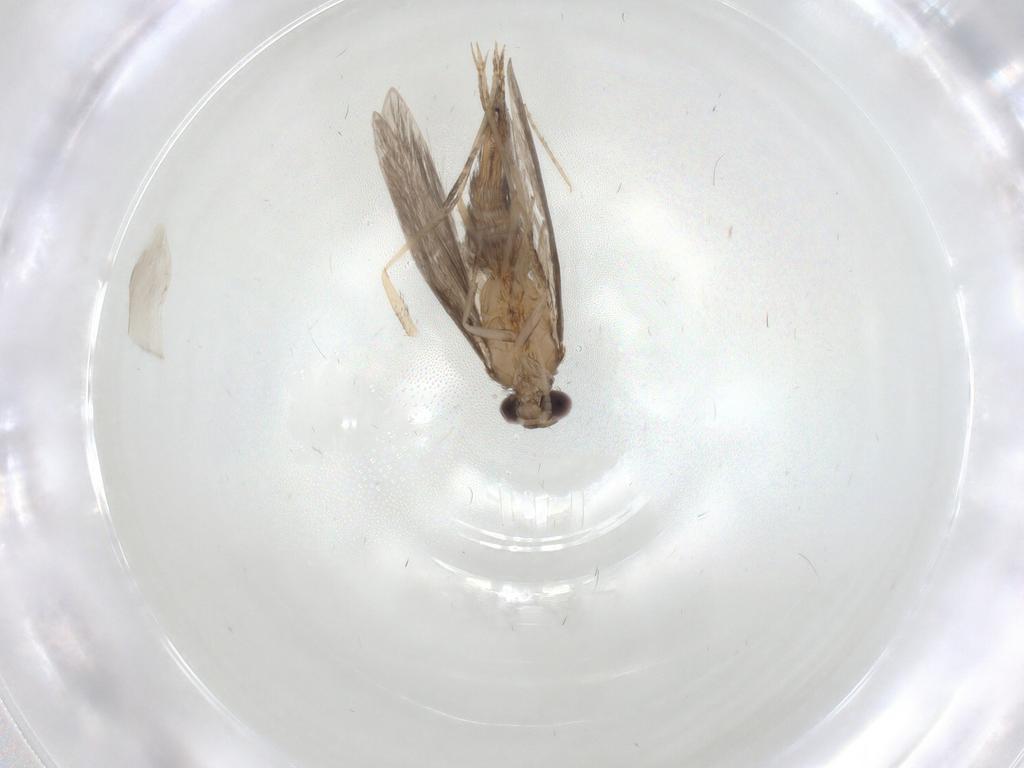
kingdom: Animalia
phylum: Arthropoda
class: Insecta
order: Trichoptera
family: Hydroptilidae
